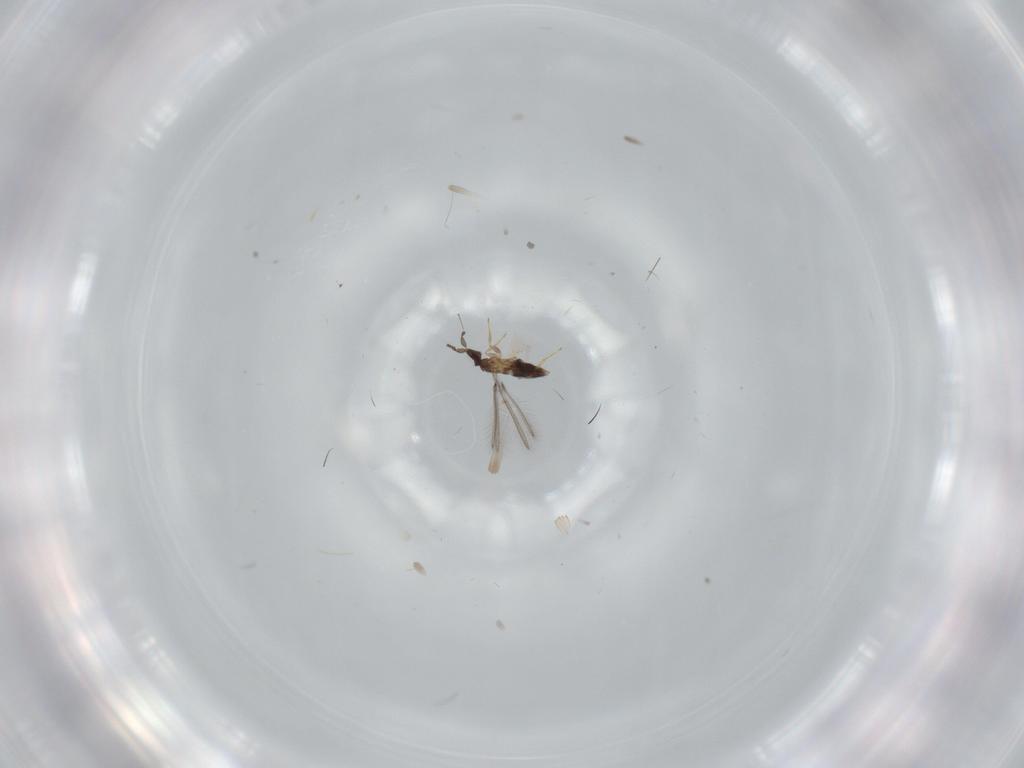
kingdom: Animalia
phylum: Arthropoda
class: Insecta
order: Hymenoptera
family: Mymaridae
